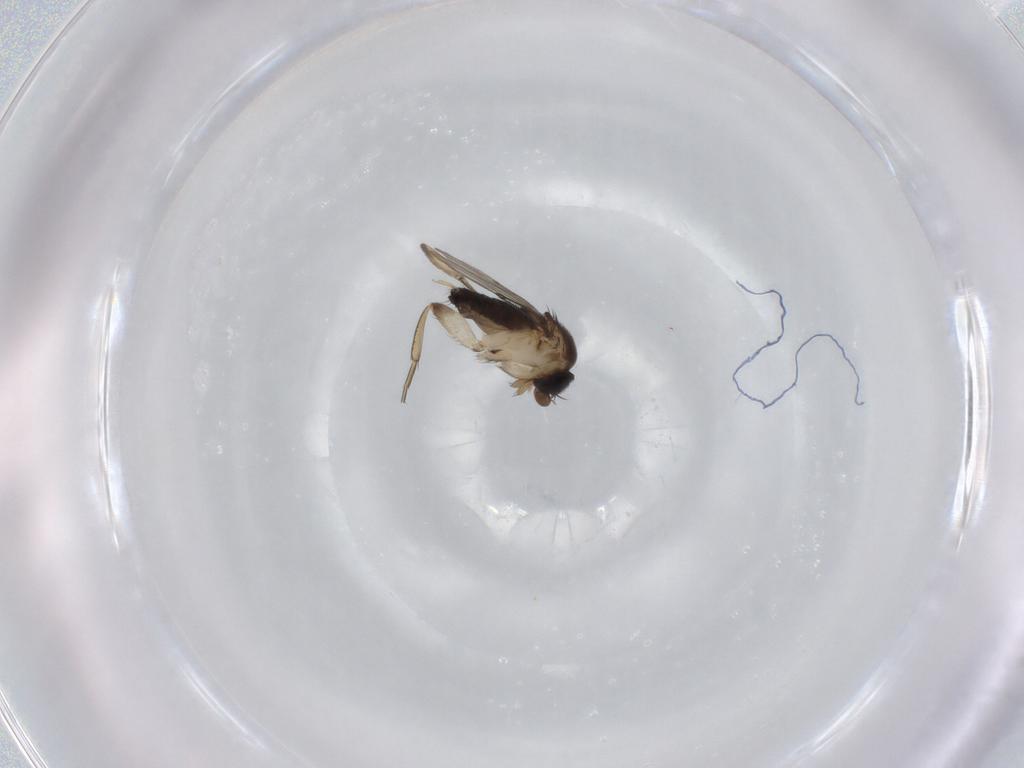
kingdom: Animalia
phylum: Arthropoda
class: Insecta
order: Diptera
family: Phoridae
